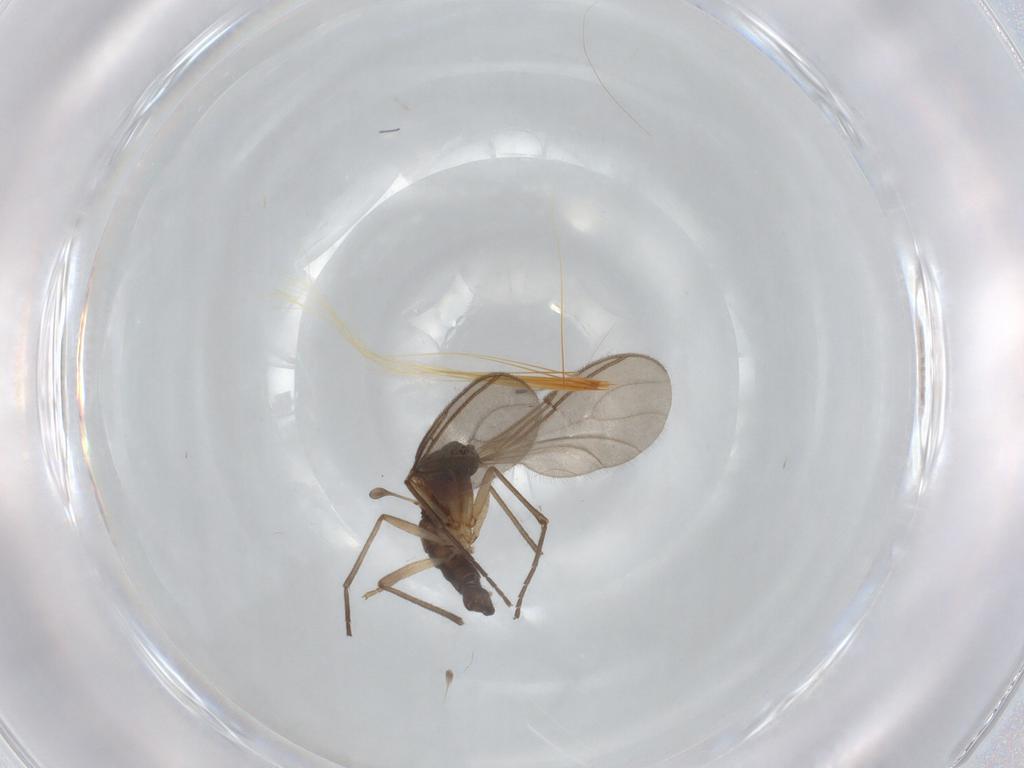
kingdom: Animalia
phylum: Arthropoda
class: Insecta
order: Diptera
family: Sciaridae
